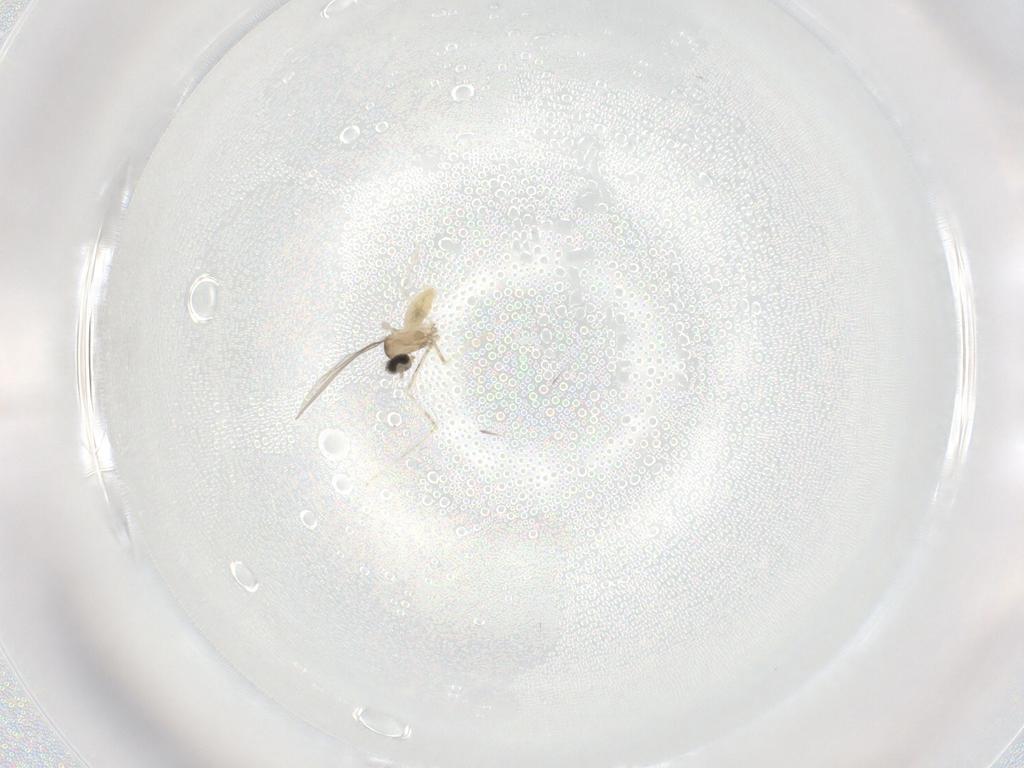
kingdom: Animalia
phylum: Arthropoda
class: Insecta
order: Diptera
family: Cecidomyiidae
